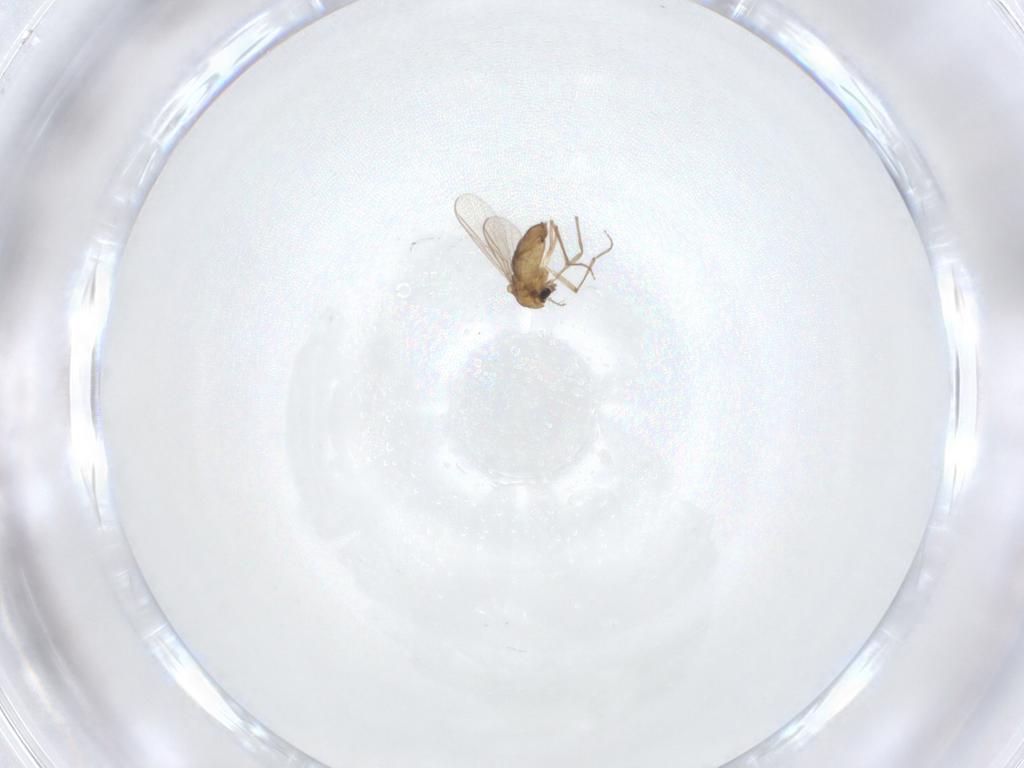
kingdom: Animalia
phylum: Arthropoda
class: Insecta
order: Diptera
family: Chironomidae
